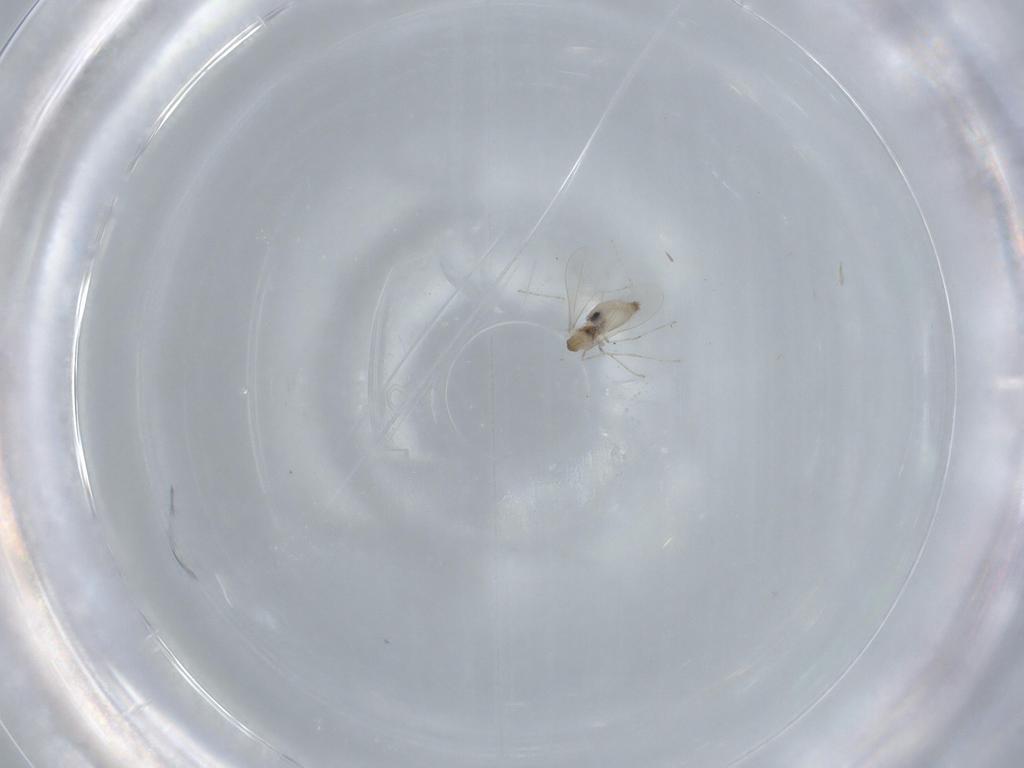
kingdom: Animalia
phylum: Arthropoda
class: Insecta
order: Diptera
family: Cecidomyiidae
